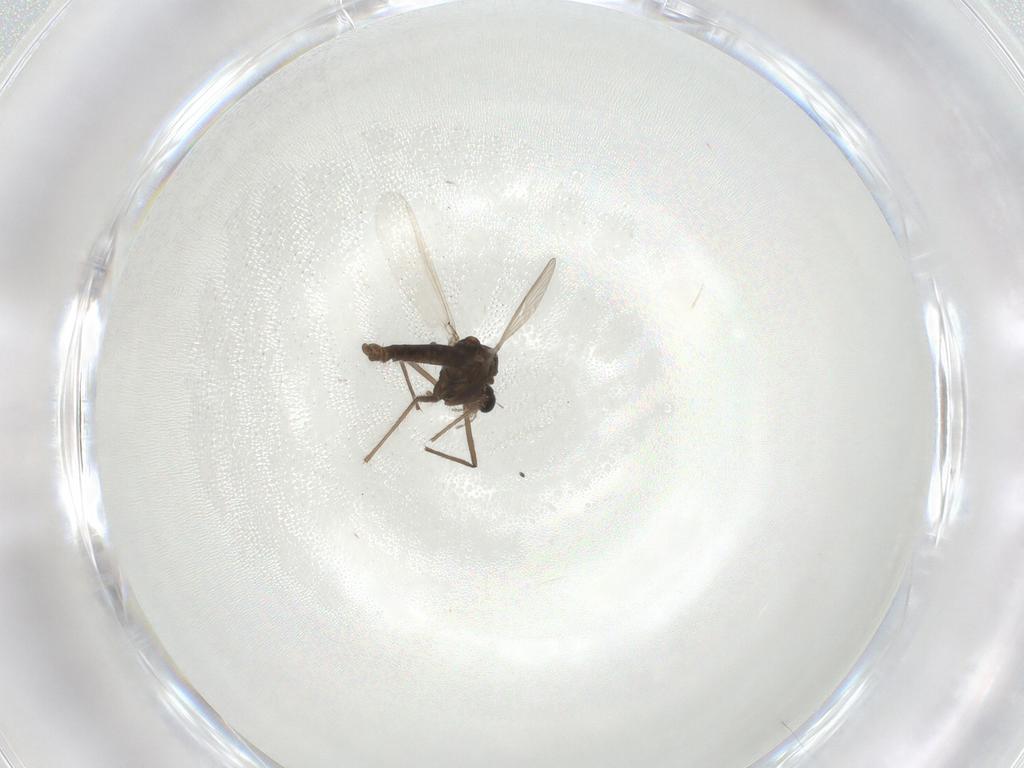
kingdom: Animalia
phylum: Arthropoda
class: Insecta
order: Diptera
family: Chironomidae
